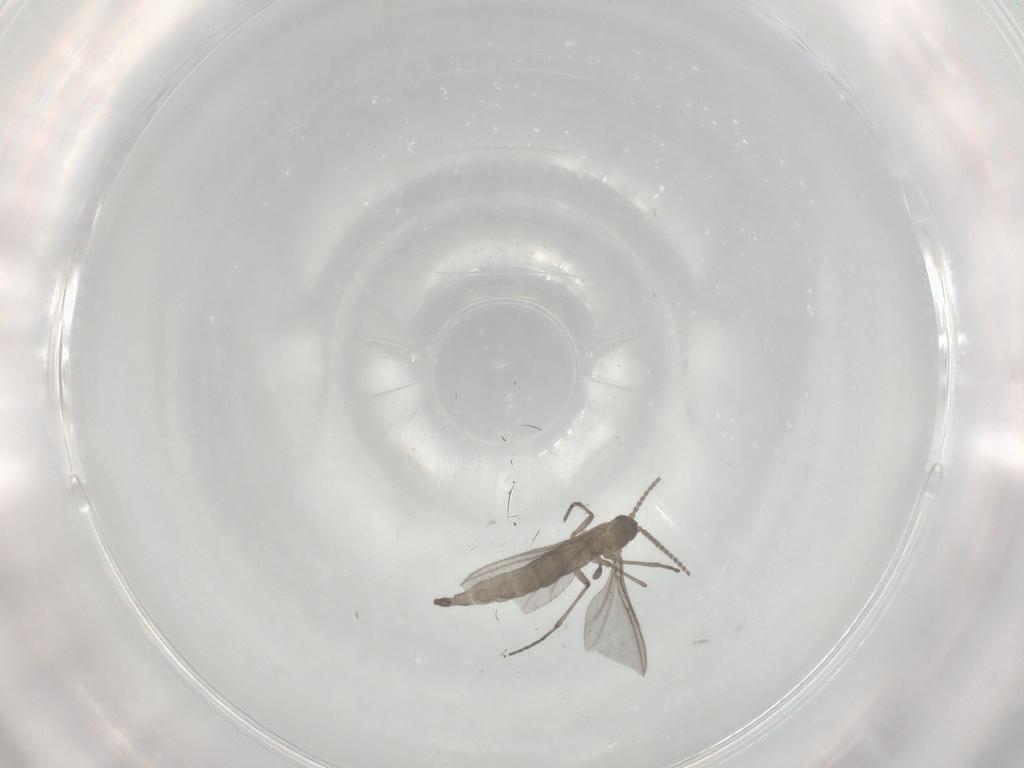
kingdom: Animalia
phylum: Arthropoda
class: Insecta
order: Diptera
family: Sciaridae
